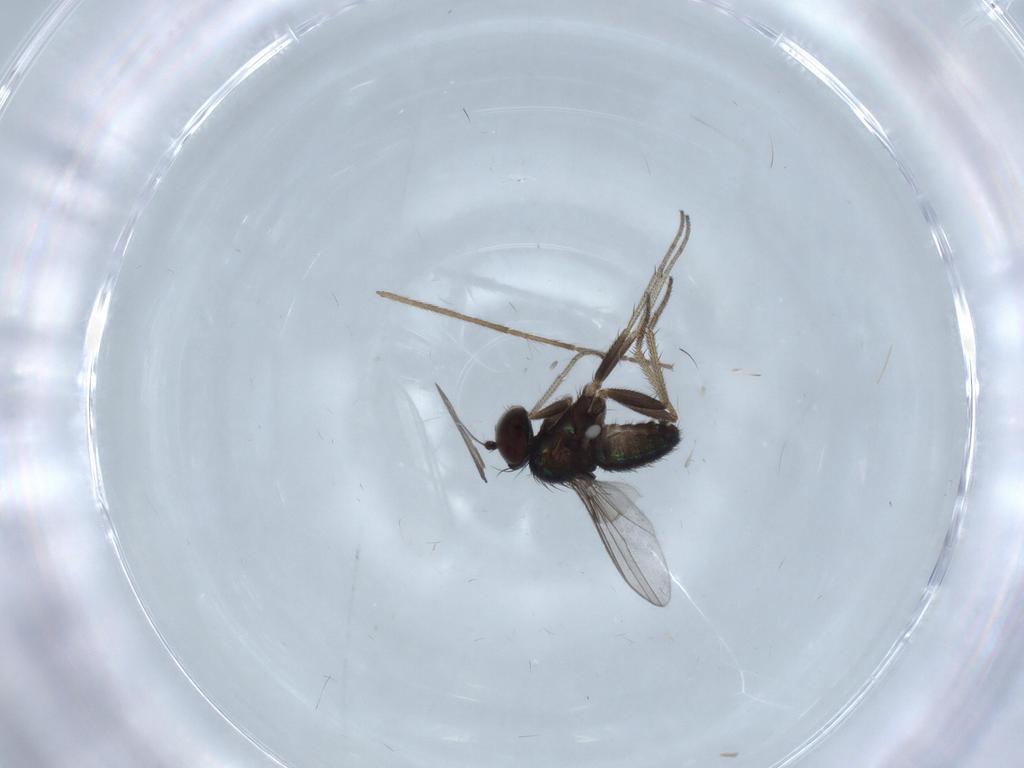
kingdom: Animalia
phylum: Arthropoda
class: Insecta
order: Diptera
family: Chironomidae
